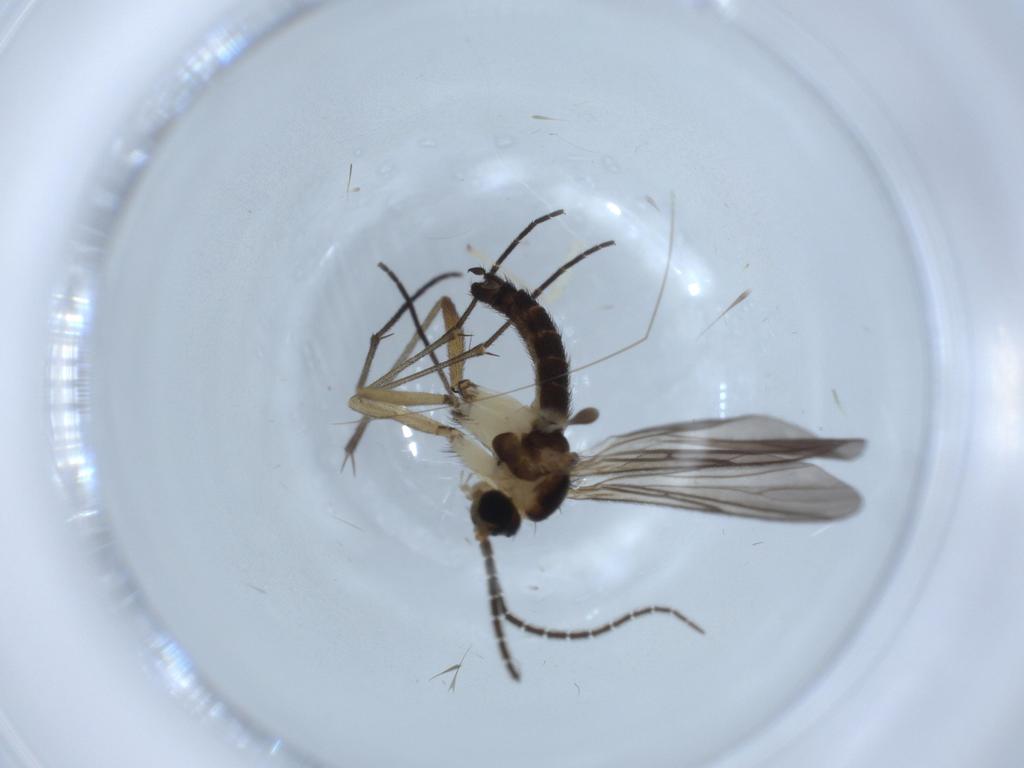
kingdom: Animalia
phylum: Arthropoda
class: Insecta
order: Diptera
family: Sciaridae
